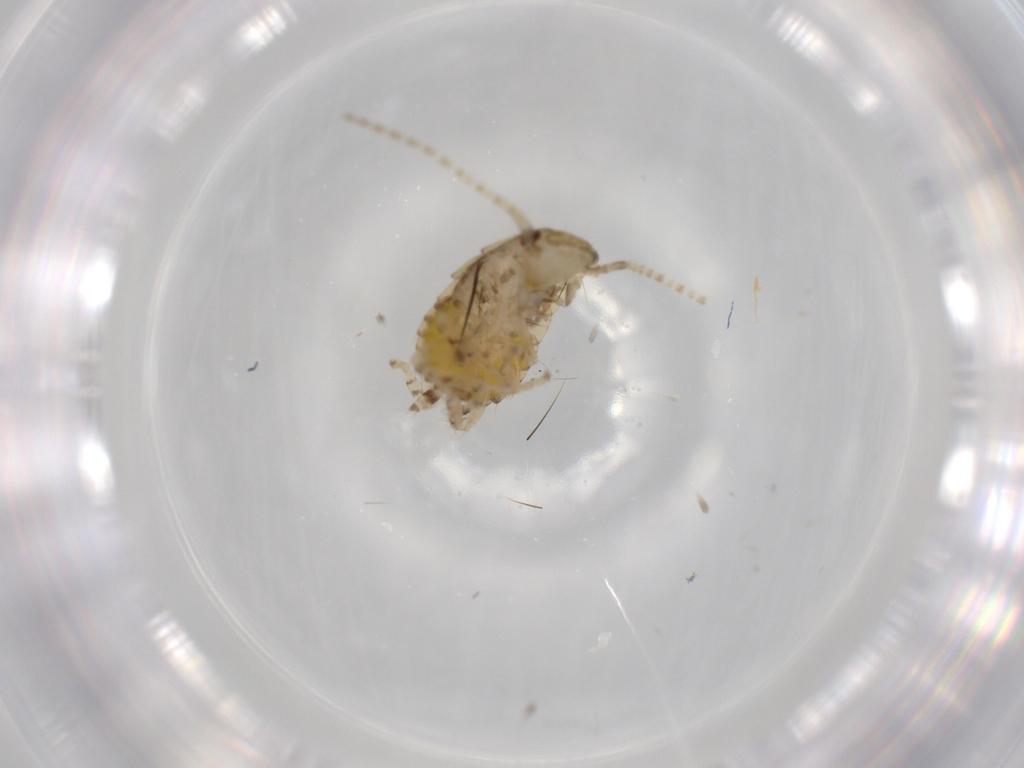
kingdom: Animalia
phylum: Arthropoda
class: Insecta
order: Blattodea
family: Ectobiidae
